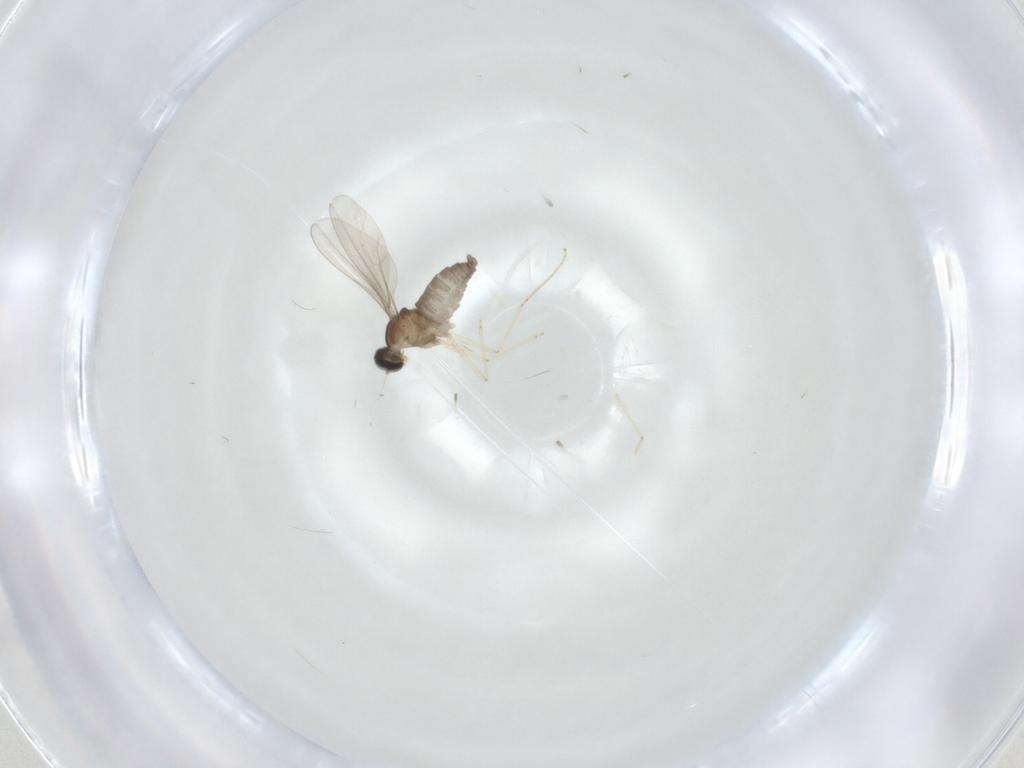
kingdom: Animalia
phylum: Arthropoda
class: Insecta
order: Diptera
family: Cecidomyiidae
